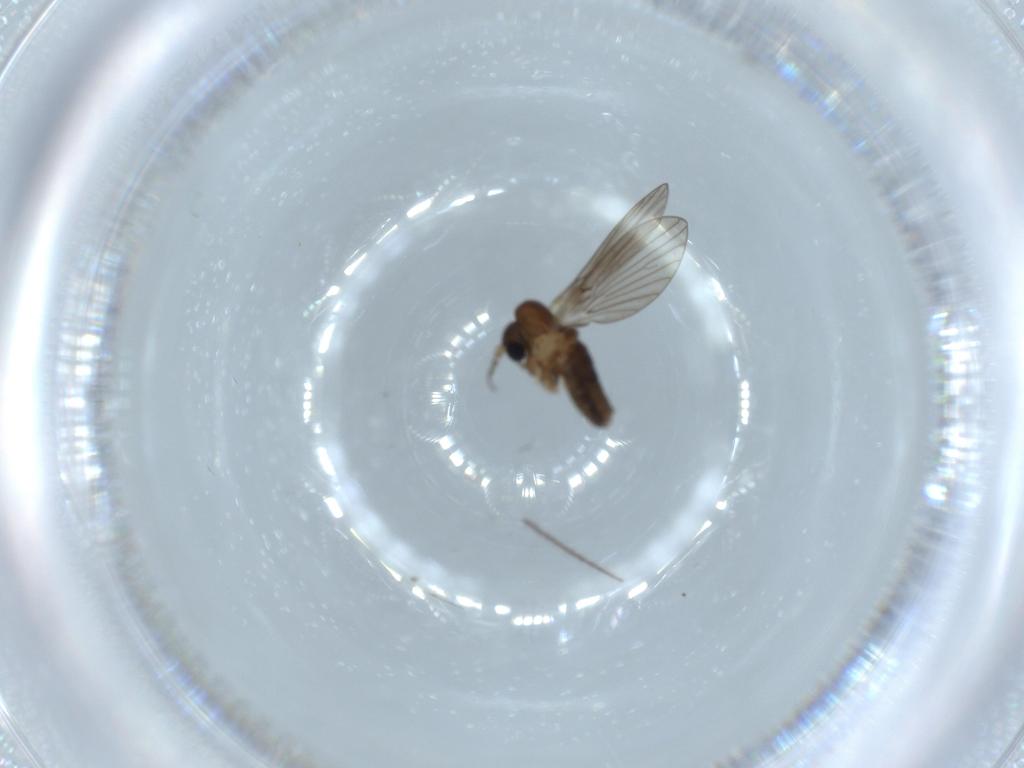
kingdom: Animalia
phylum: Arthropoda
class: Insecta
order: Diptera
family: Psychodidae
